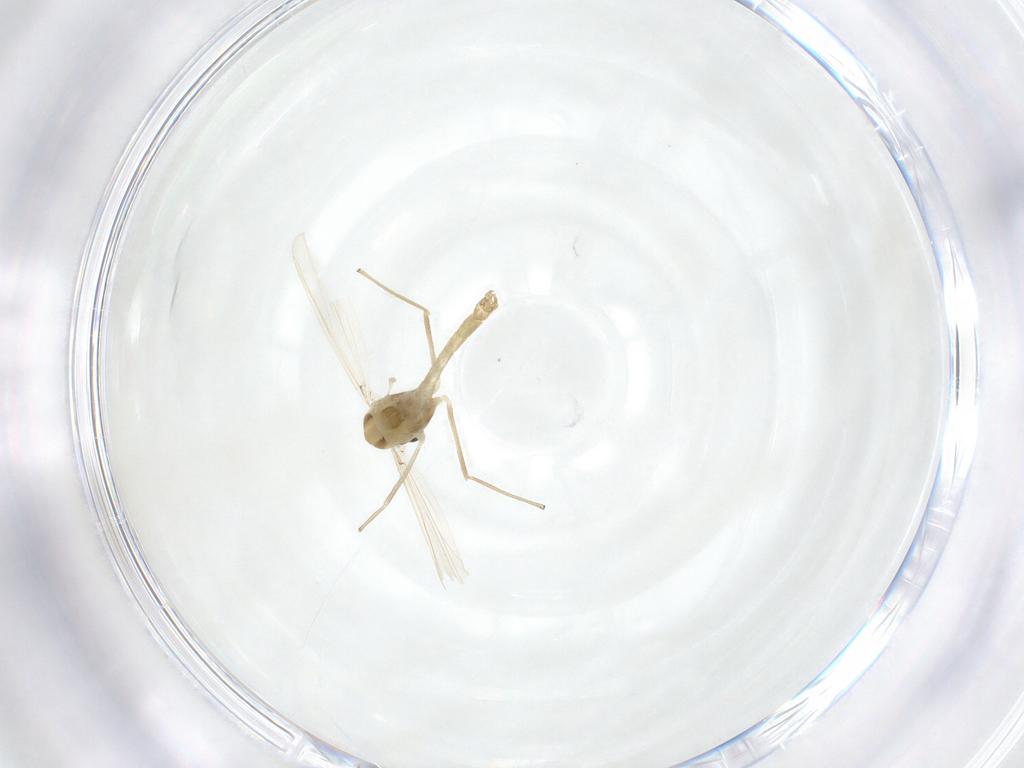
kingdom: Animalia
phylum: Arthropoda
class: Insecta
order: Diptera
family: Chironomidae
